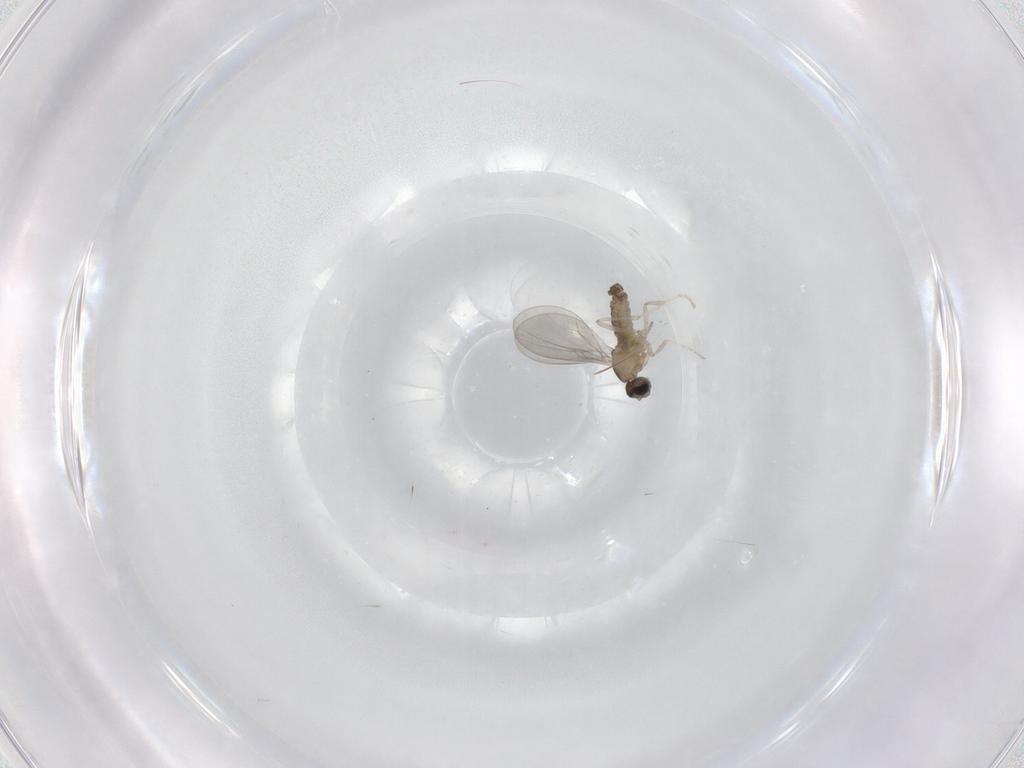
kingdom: Animalia
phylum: Arthropoda
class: Insecta
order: Diptera
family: Cecidomyiidae
